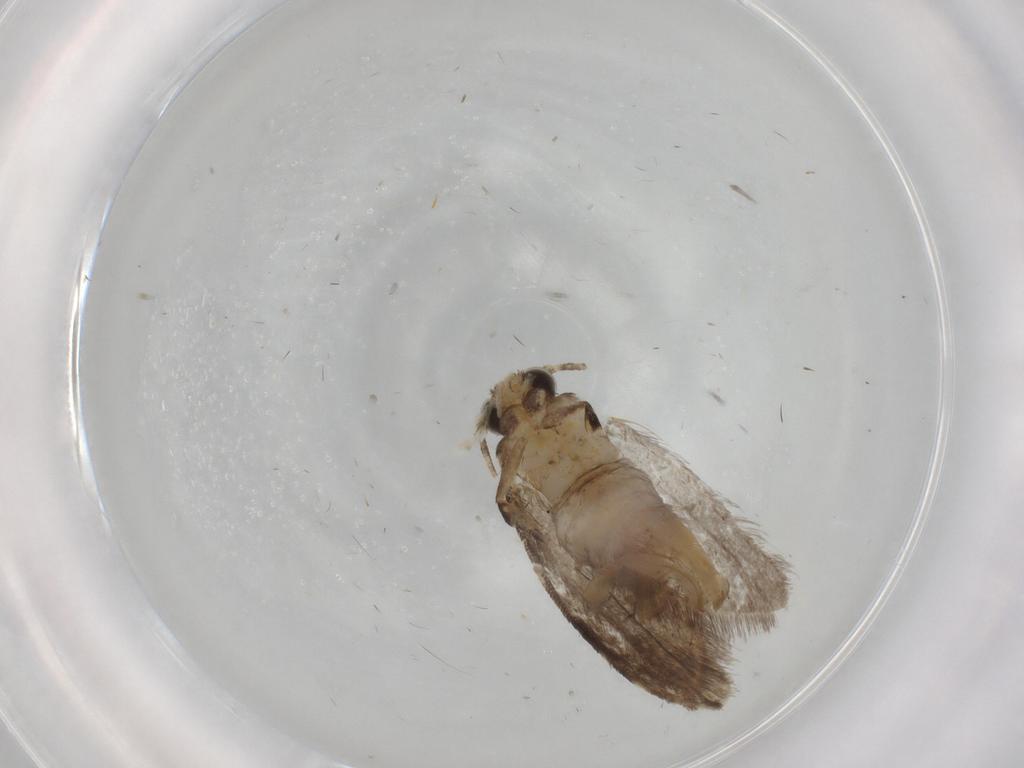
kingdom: Animalia
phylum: Arthropoda
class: Insecta
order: Lepidoptera
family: Tineidae
